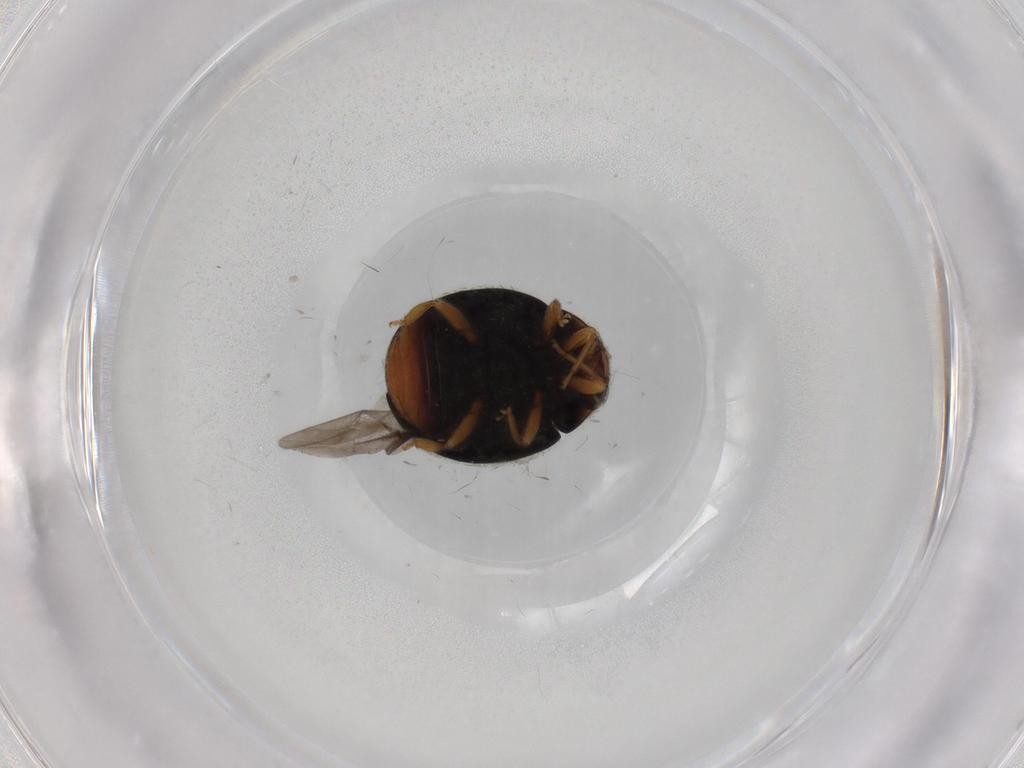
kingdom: Animalia
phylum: Arthropoda
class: Insecta
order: Coleoptera
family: Coccinellidae
